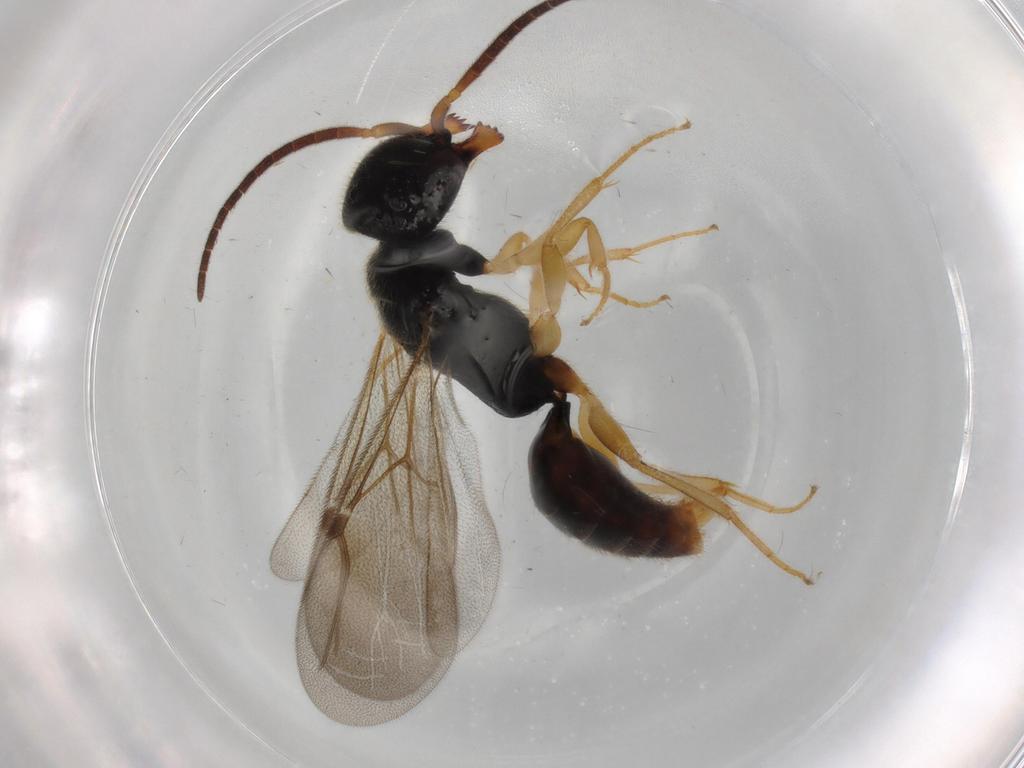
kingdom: Animalia
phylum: Arthropoda
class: Insecta
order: Hymenoptera
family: Bethylidae
